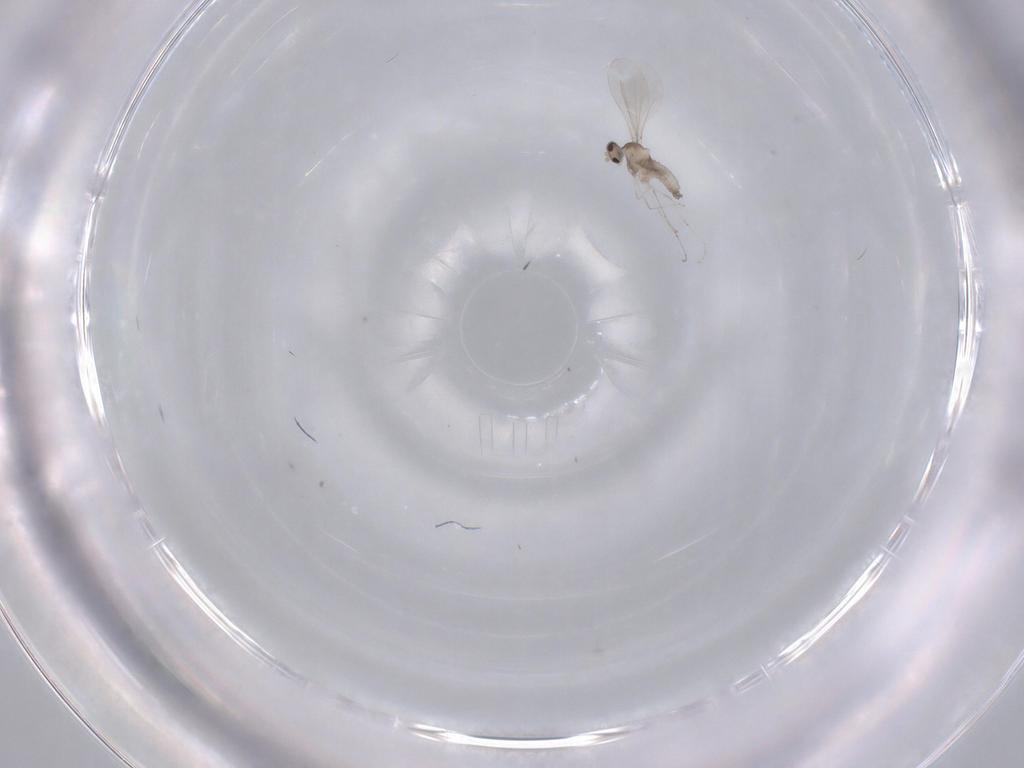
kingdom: Animalia
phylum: Arthropoda
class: Insecta
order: Diptera
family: Cecidomyiidae
